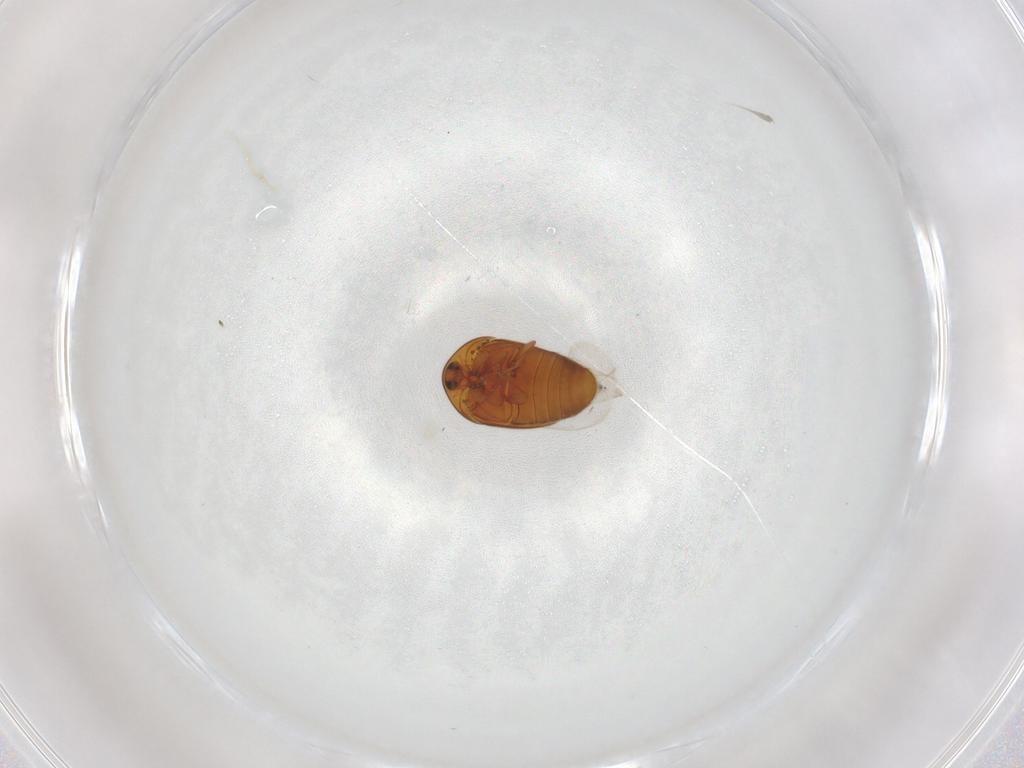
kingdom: Animalia
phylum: Arthropoda
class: Insecta
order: Coleoptera
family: Corylophidae
